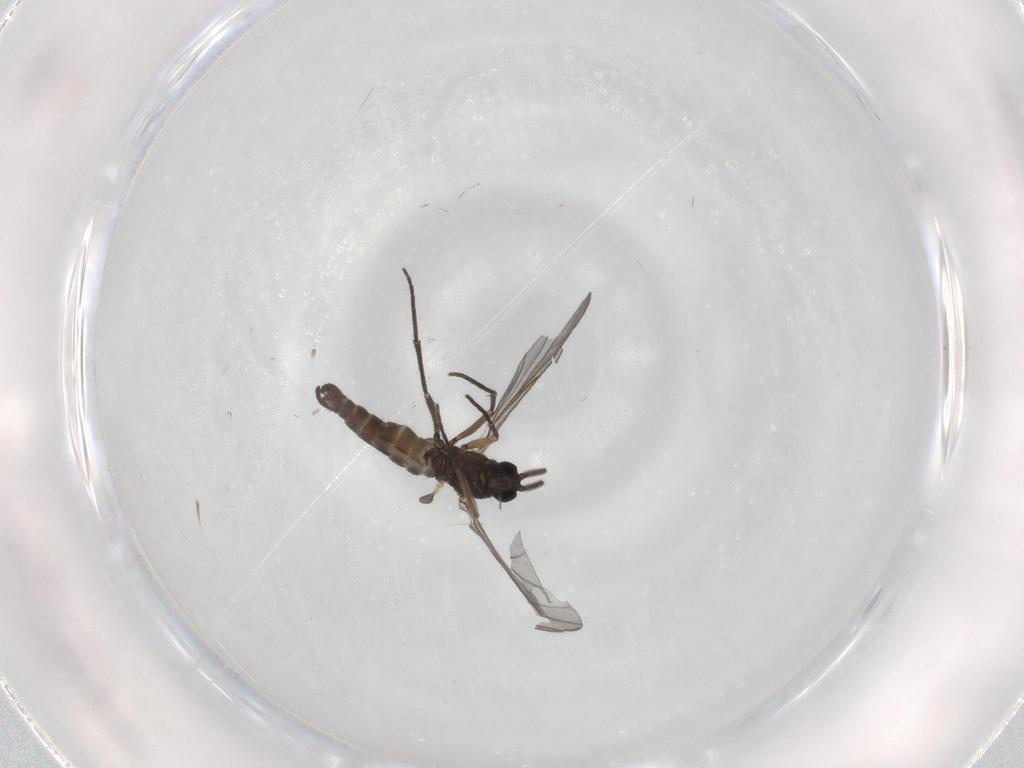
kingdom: Animalia
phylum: Arthropoda
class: Insecta
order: Diptera
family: Sciaridae
